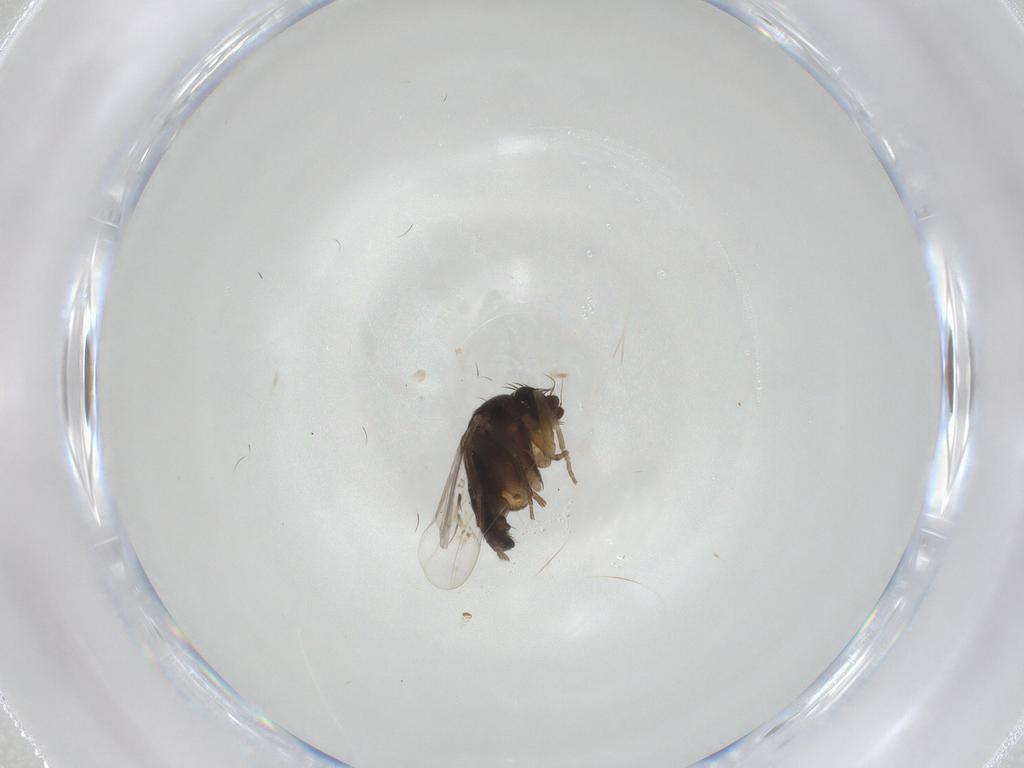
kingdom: Animalia
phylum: Arthropoda
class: Insecta
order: Diptera
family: Phoridae
